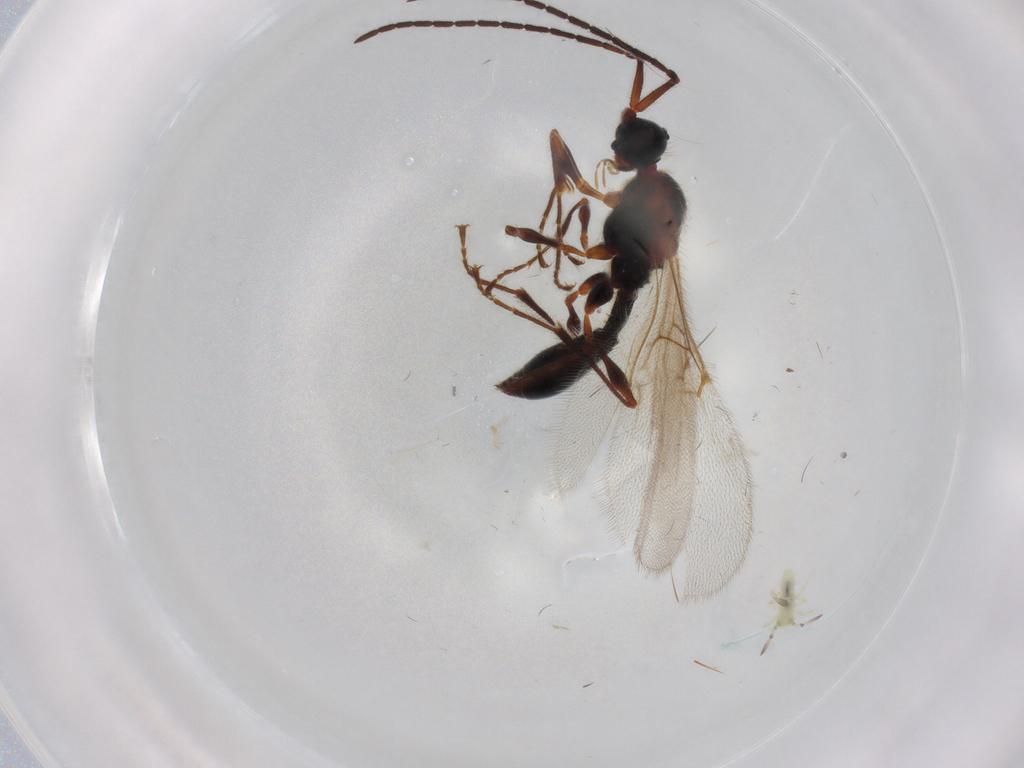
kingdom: Animalia
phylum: Arthropoda
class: Insecta
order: Hymenoptera
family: Diapriidae
